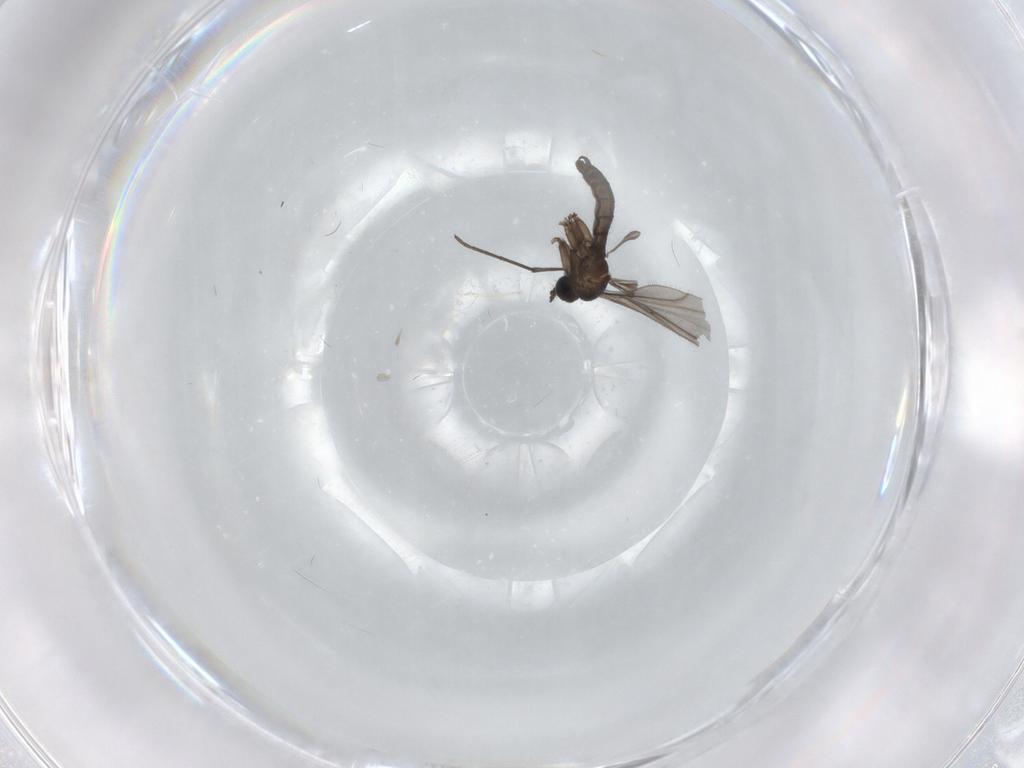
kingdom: Animalia
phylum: Arthropoda
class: Insecta
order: Diptera
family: Sciaridae
